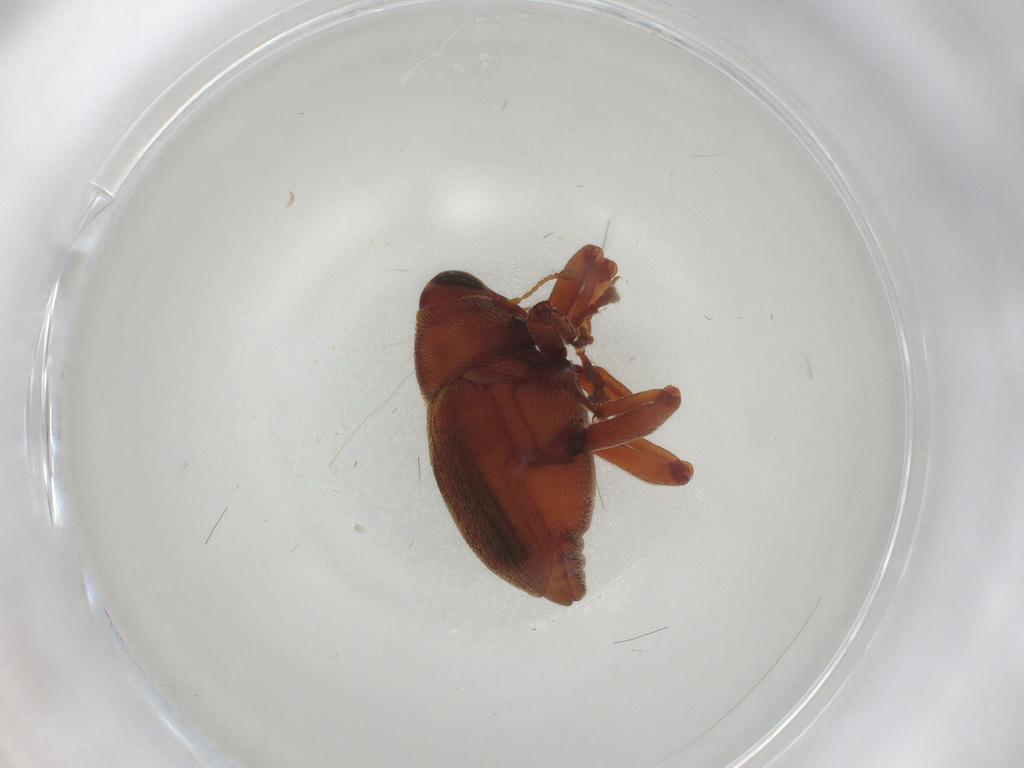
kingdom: Animalia
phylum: Arthropoda
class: Insecta
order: Coleoptera
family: Curculionidae
